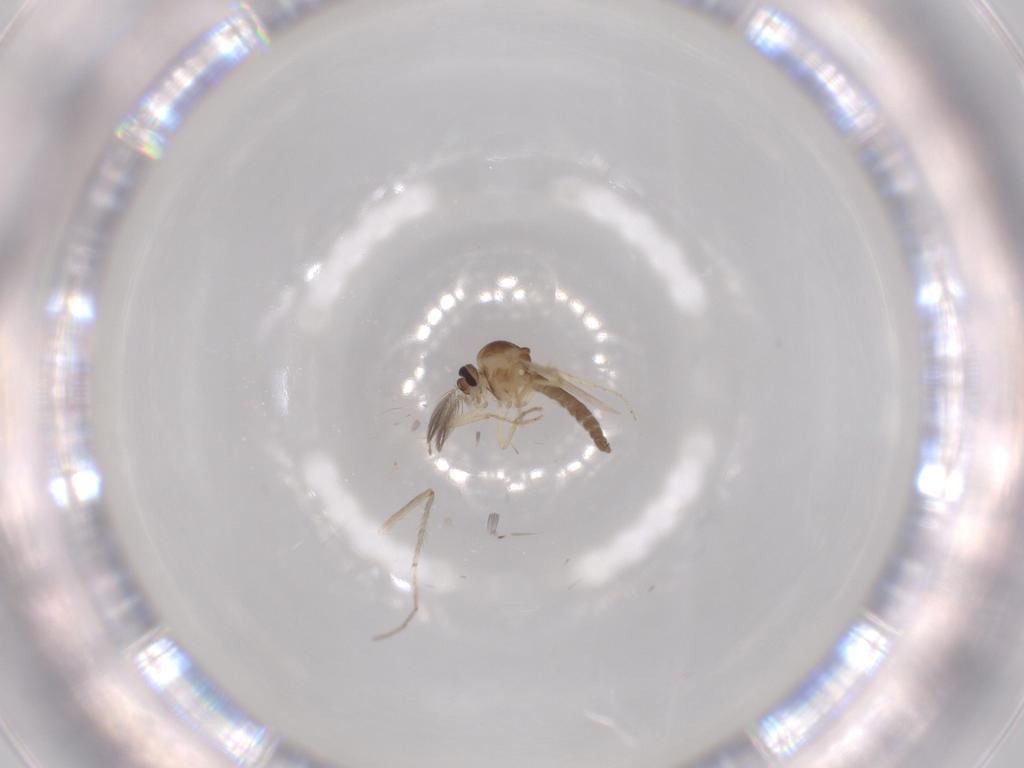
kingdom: Animalia
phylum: Arthropoda
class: Insecta
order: Diptera
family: Ceratopogonidae
